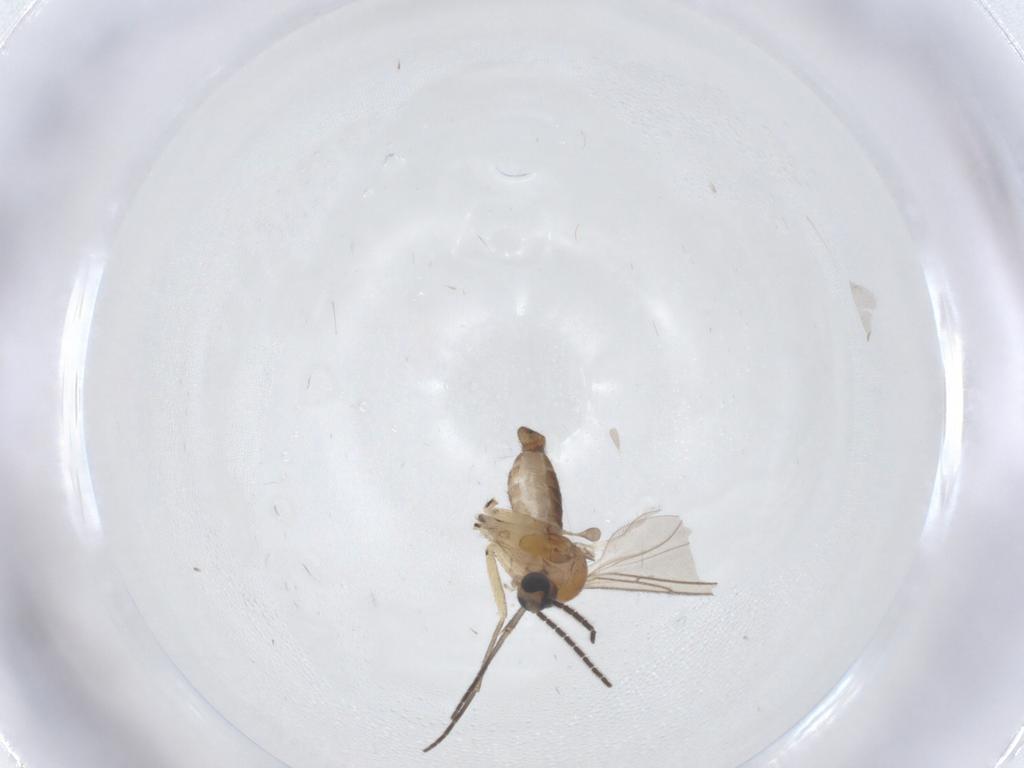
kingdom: Animalia
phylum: Arthropoda
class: Insecta
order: Diptera
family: Sciaridae
